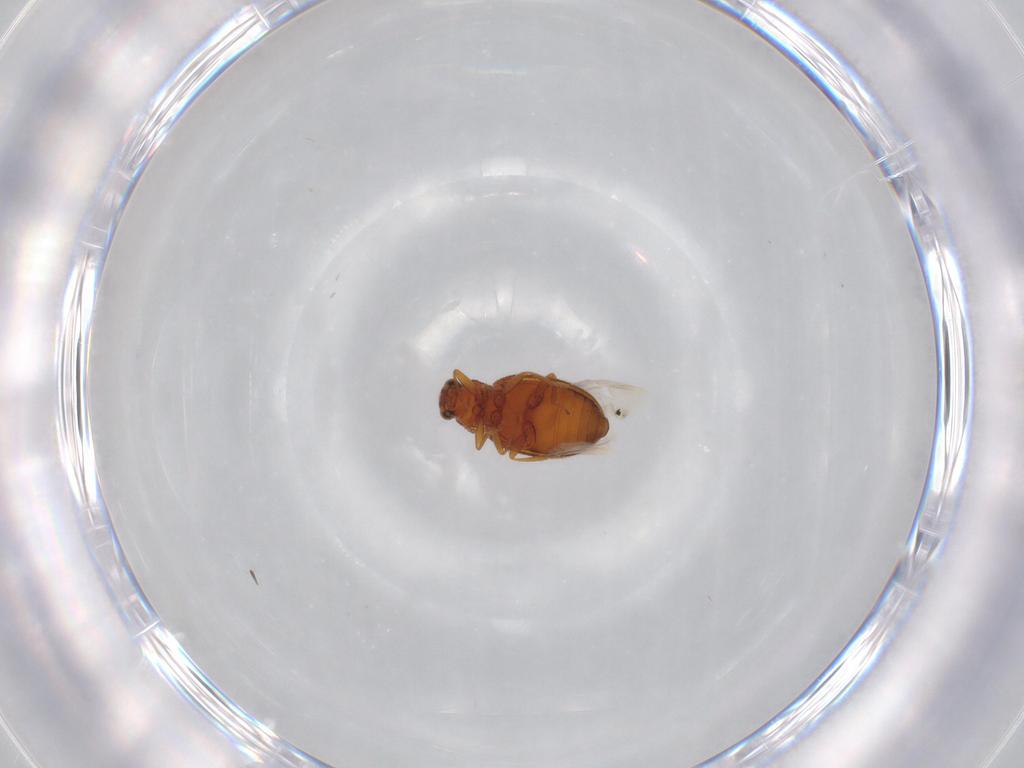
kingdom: Animalia
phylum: Arthropoda
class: Insecta
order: Coleoptera
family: Latridiidae
